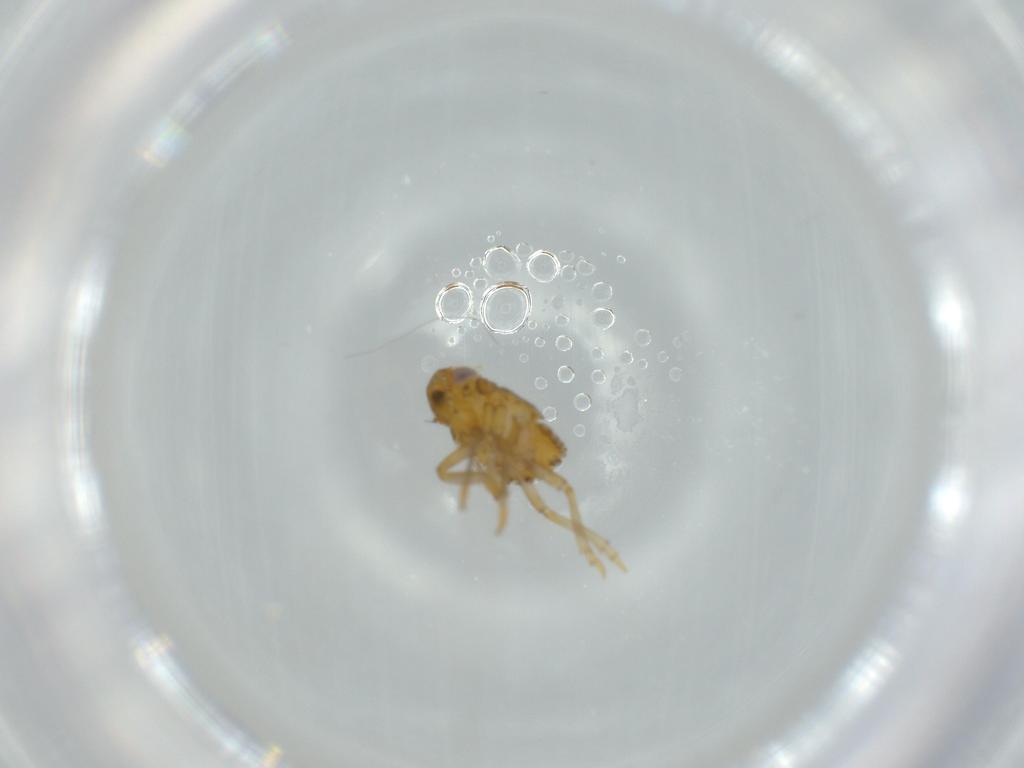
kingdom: Animalia
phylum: Arthropoda
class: Insecta
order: Hemiptera
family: Issidae
